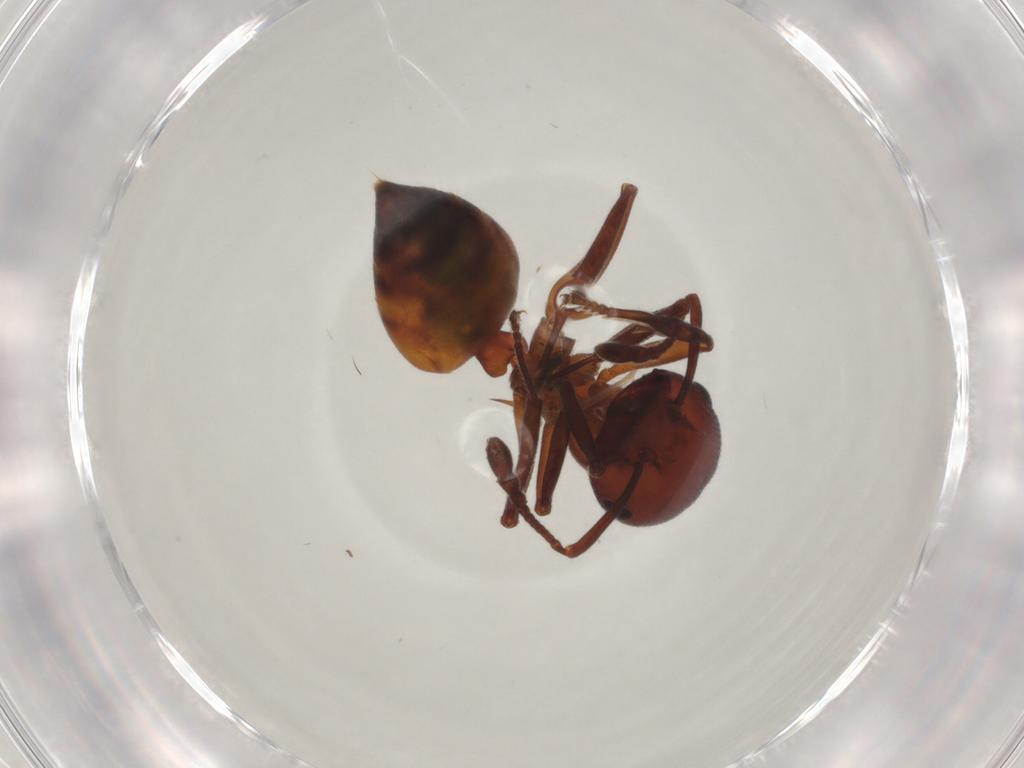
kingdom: Animalia
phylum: Arthropoda
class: Insecta
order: Hymenoptera
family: Formicidae
